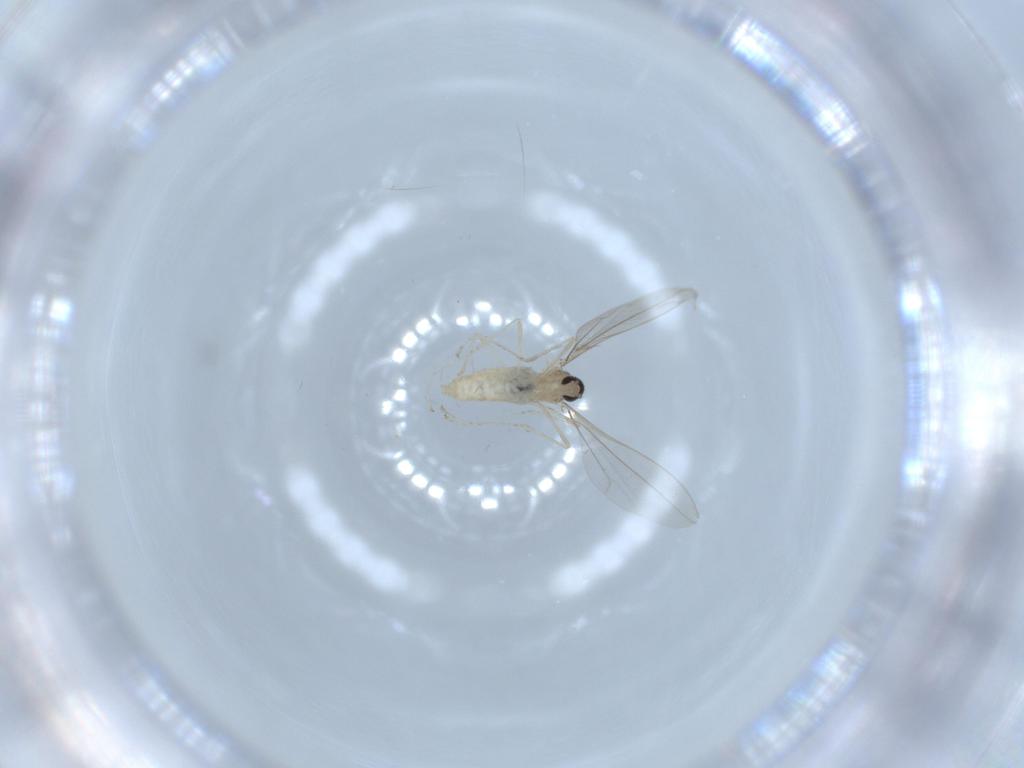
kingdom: Animalia
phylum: Arthropoda
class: Insecta
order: Diptera
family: Cecidomyiidae
